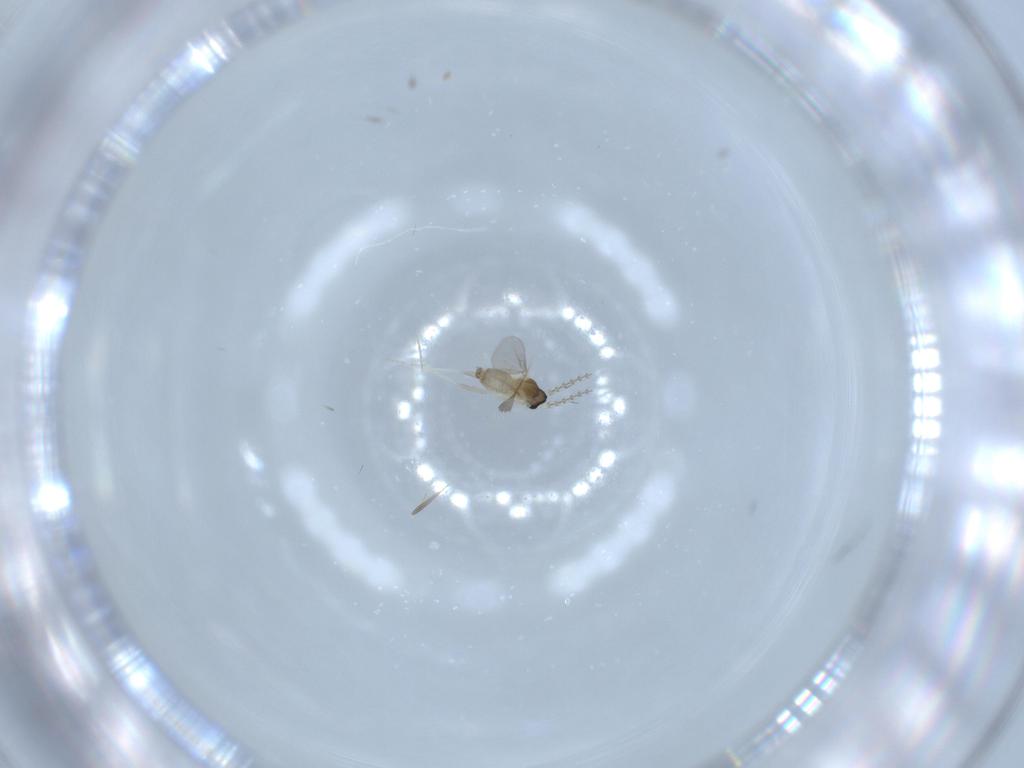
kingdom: Animalia
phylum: Arthropoda
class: Insecta
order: Diptera
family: Cecidomyiidae
